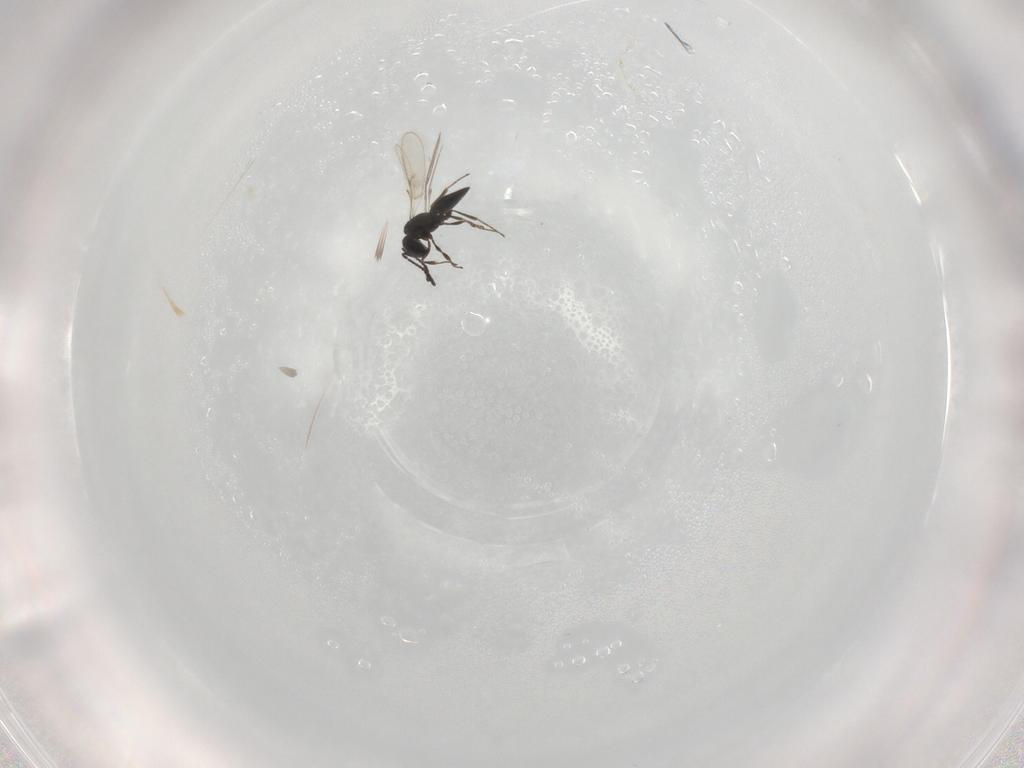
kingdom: Animalia
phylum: Arthropoda
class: Insecta
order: Hymenoptera
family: Scelionidae
